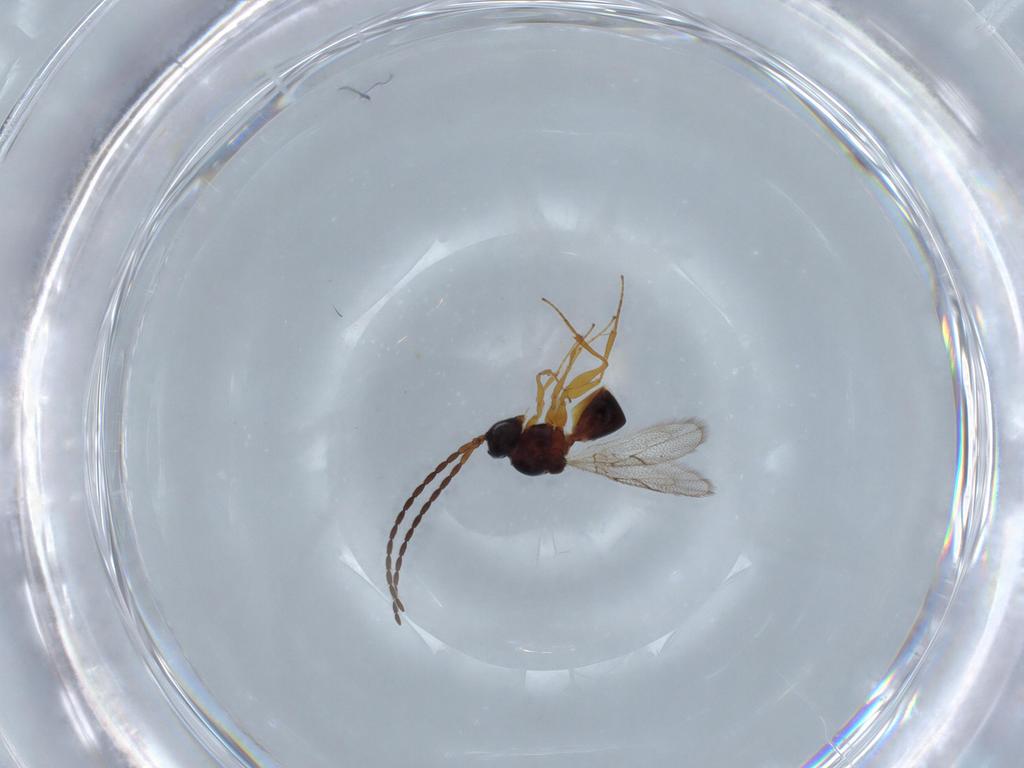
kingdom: Animalia
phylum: Arthropoda
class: Insecta
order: Hymenoptera
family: Figitidae
